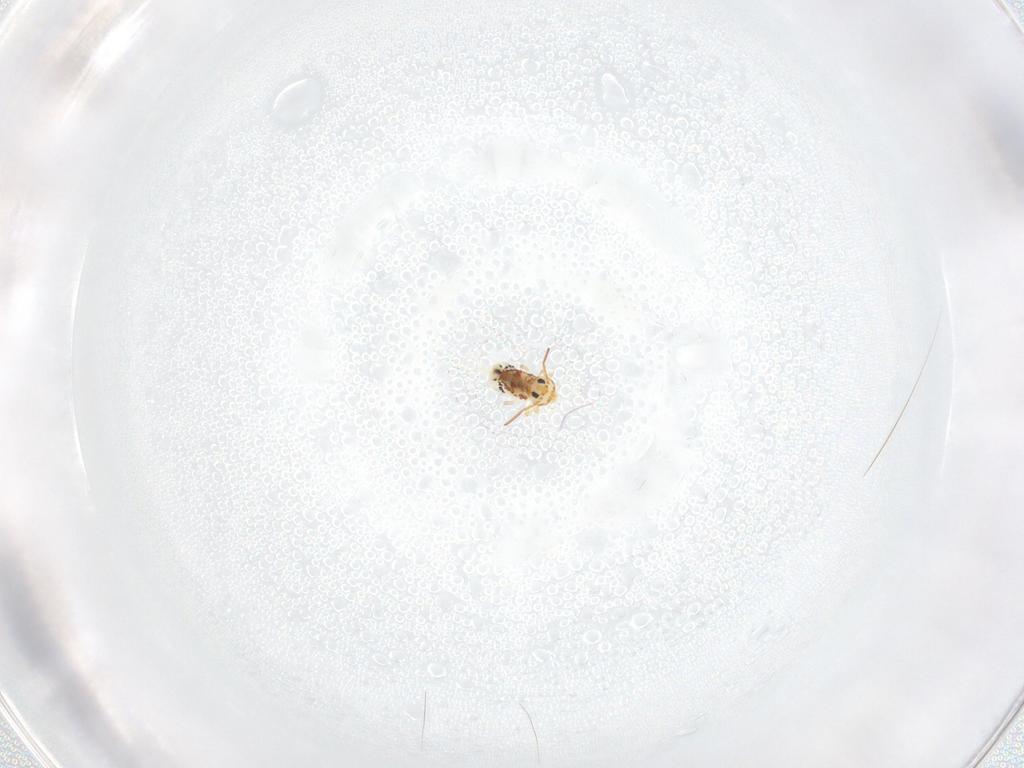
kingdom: Animalia
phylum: Arthropoda
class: Collembola
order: Symphypleona
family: Bourletiellidae
